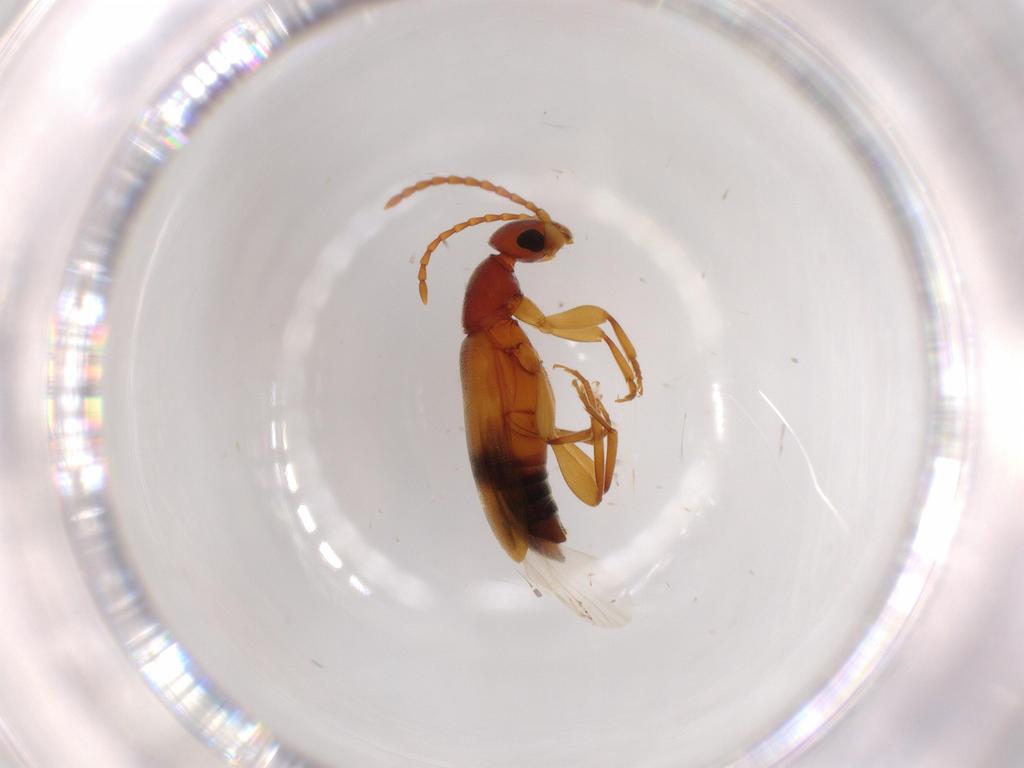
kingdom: Animalia
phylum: Arthropoda
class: Insecta
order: Coleoptera
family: Anthicidae
